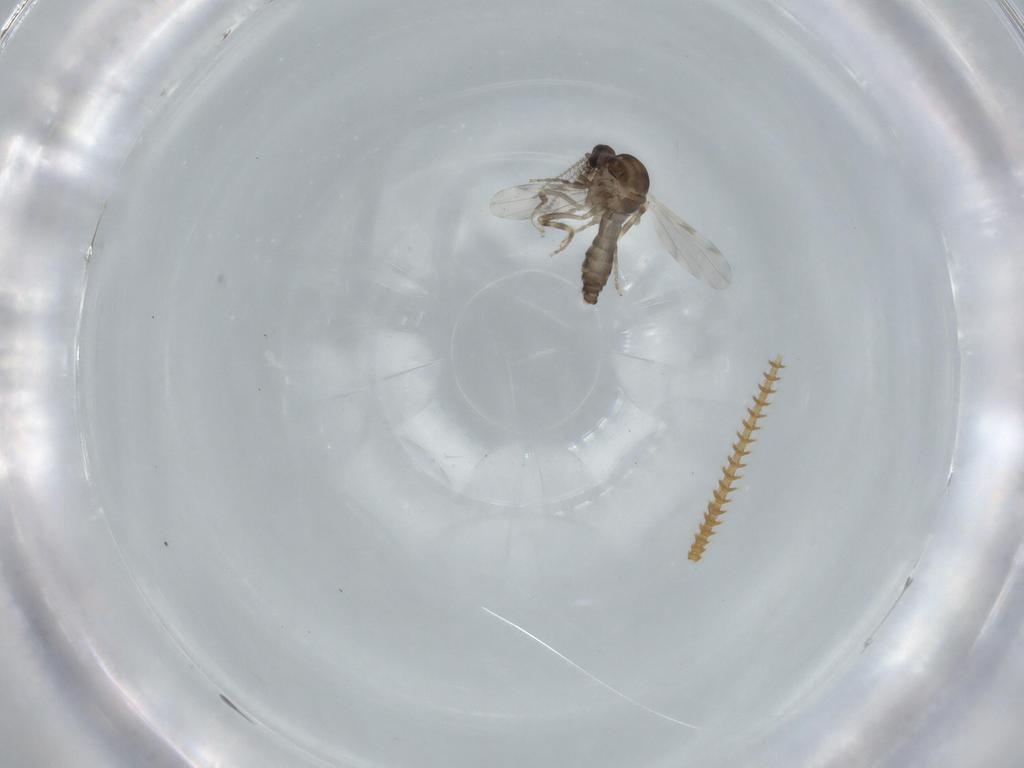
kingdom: Animalia
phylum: Arthropoda
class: Insecta
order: Diptera
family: Ceratopogonidae
